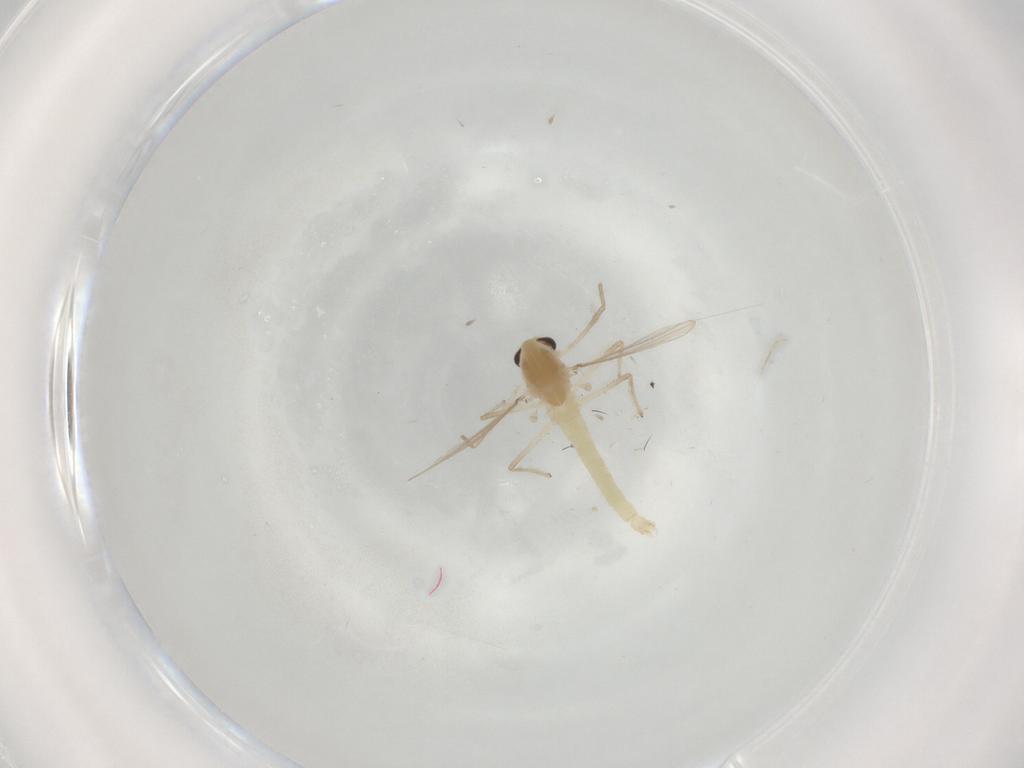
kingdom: Animalia
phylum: Arthropoda
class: Insecta
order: Diptera
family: Chironomidae
